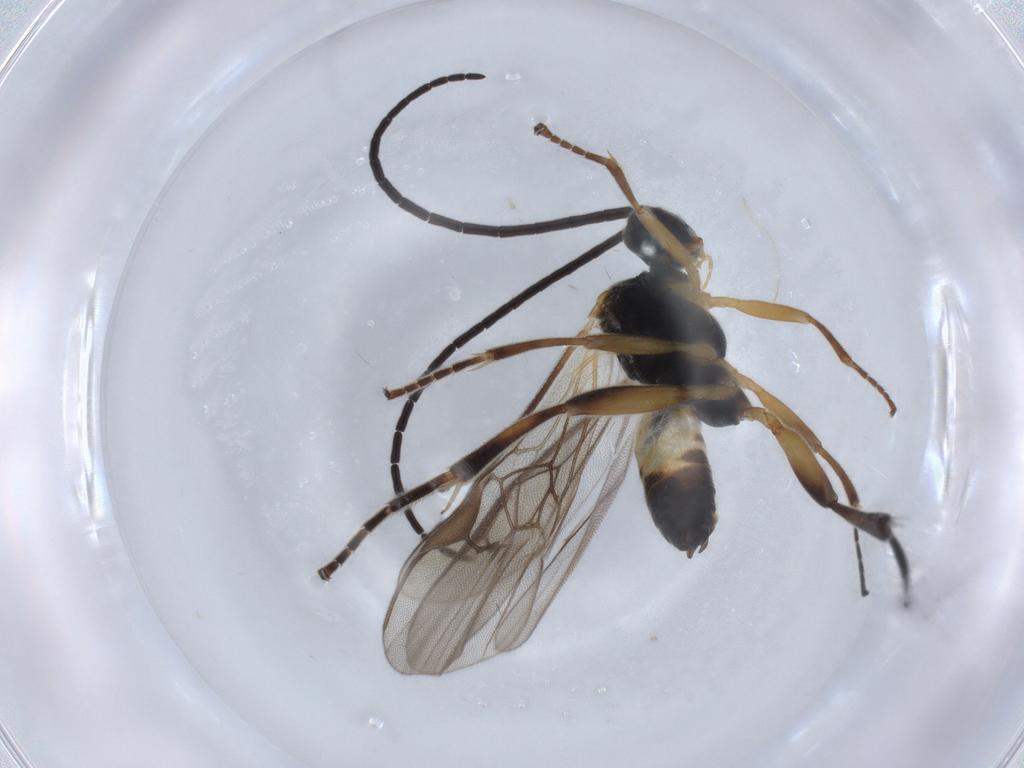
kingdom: Animalia
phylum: Arthropoda
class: Insecta
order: Hymenoptera
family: Braconidae
